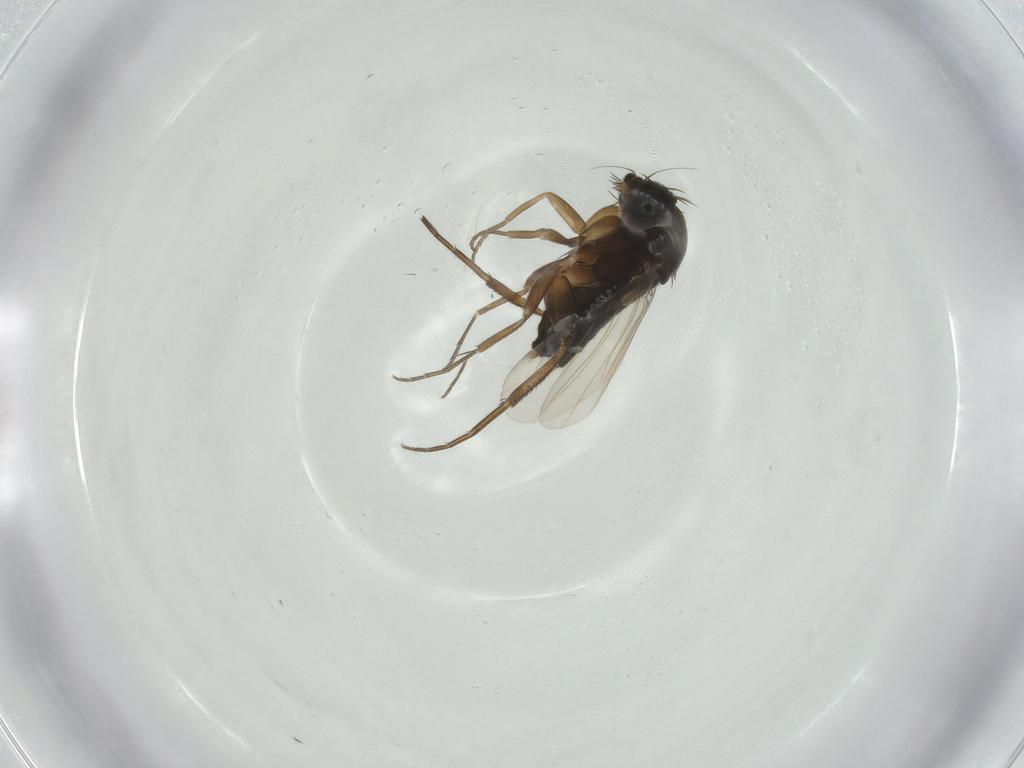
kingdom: Animalia
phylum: Arthropoda
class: Insecta
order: Diptera
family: Phoridae
